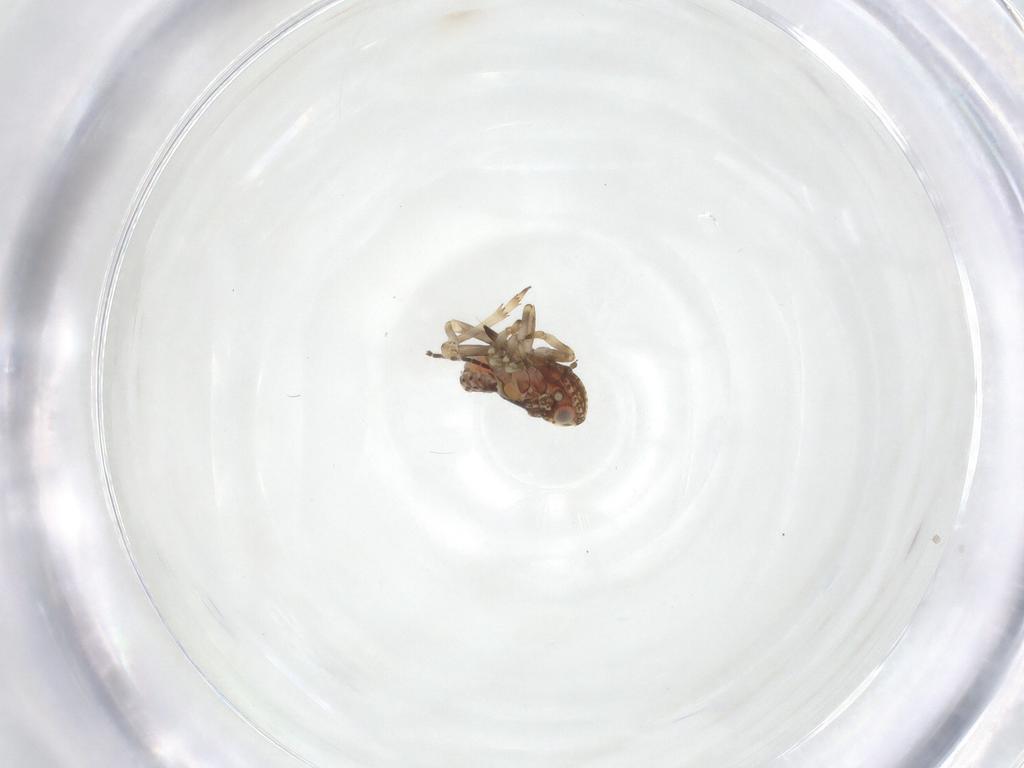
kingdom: Animalia
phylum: Arthropoda
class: Insecta
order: Hemiptera
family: Tropiduchidae
